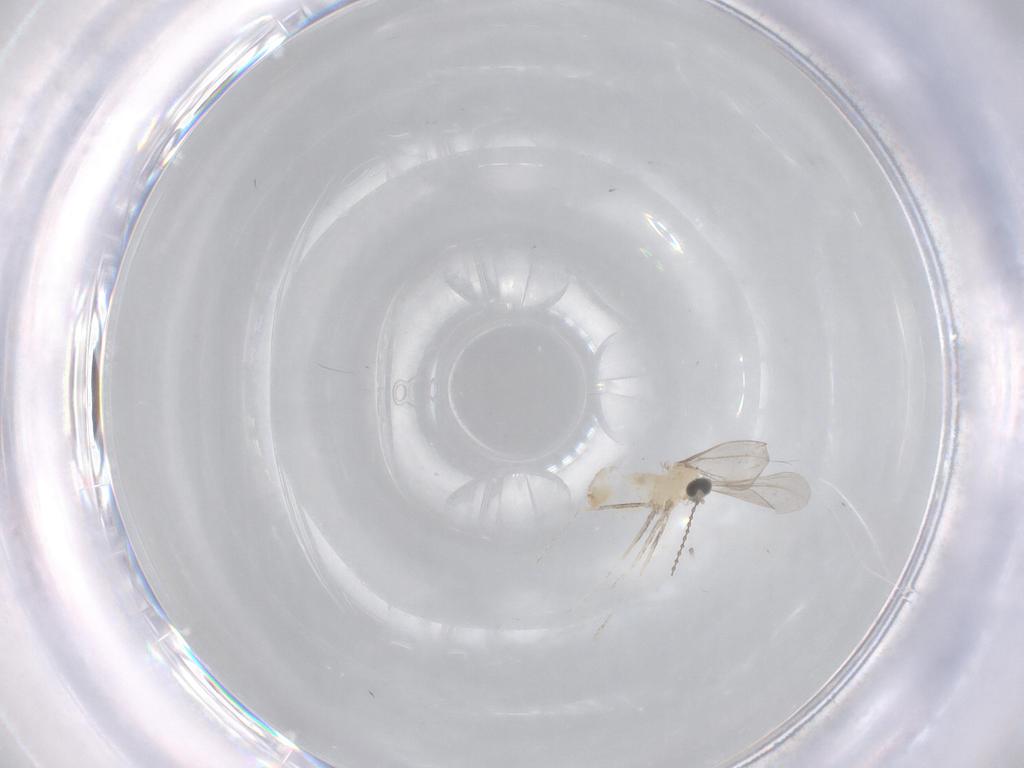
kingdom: Animalia
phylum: Arthropoda
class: Insecta
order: Diptera
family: Cecidomyiidae
